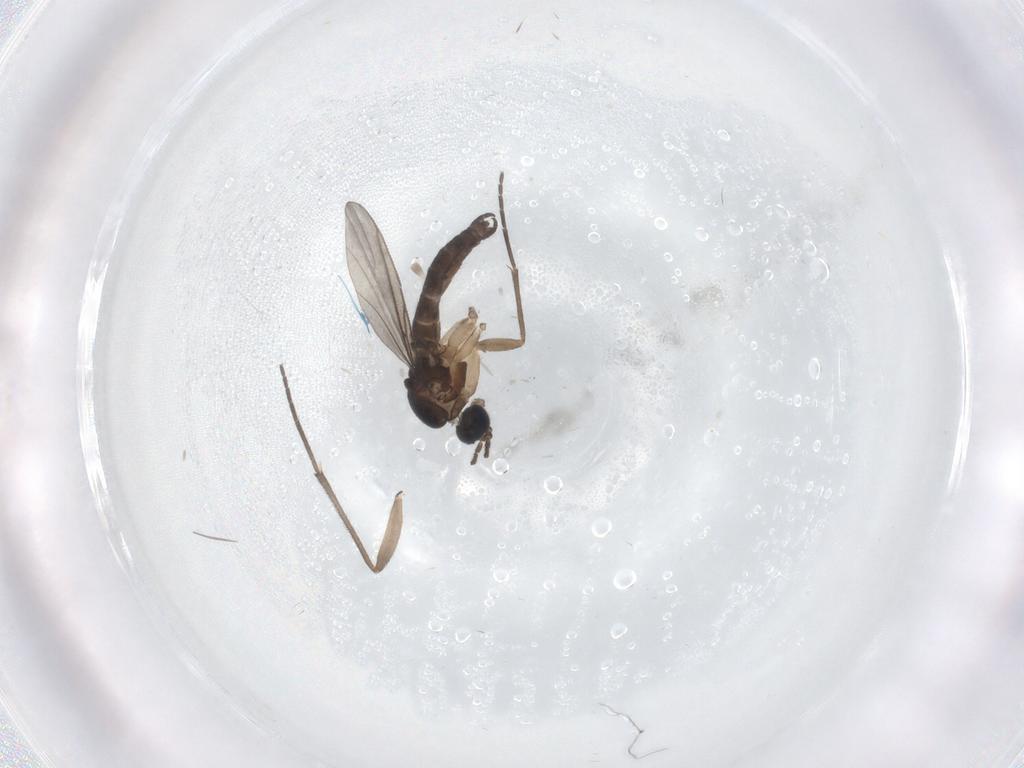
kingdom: Animalia
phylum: Arthropoda
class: Insecta
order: Diptera
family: Sciaridae
